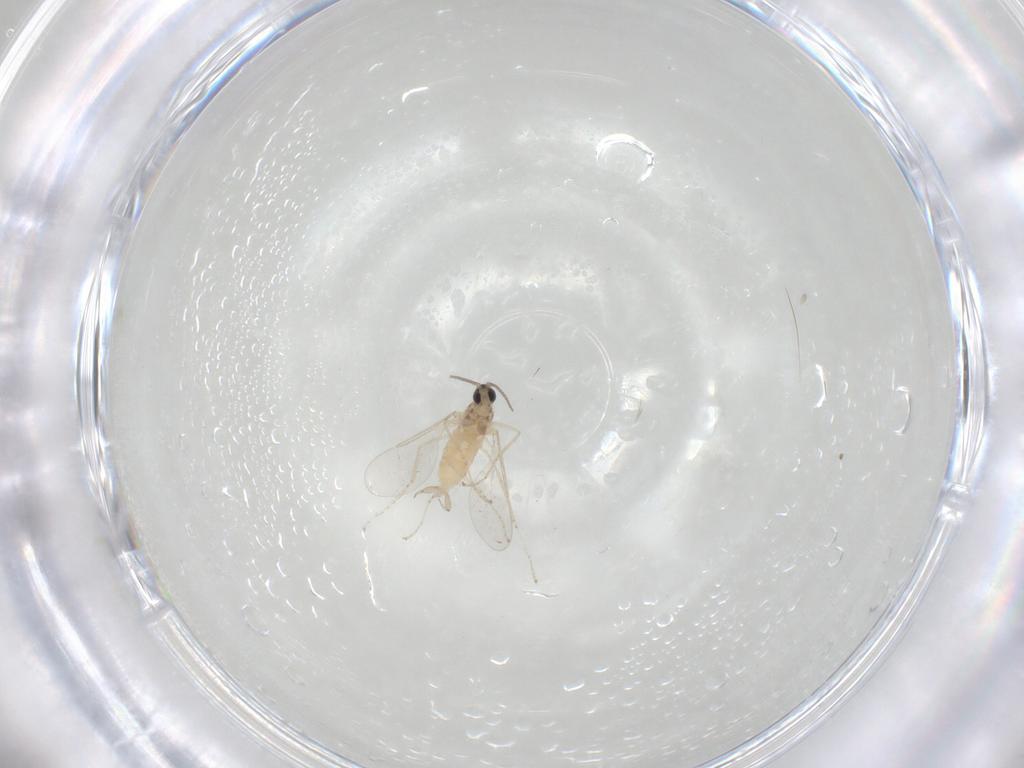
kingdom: Animalia
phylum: Arthropoda
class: Insecta
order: Diptera
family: Cecidomyiidae
